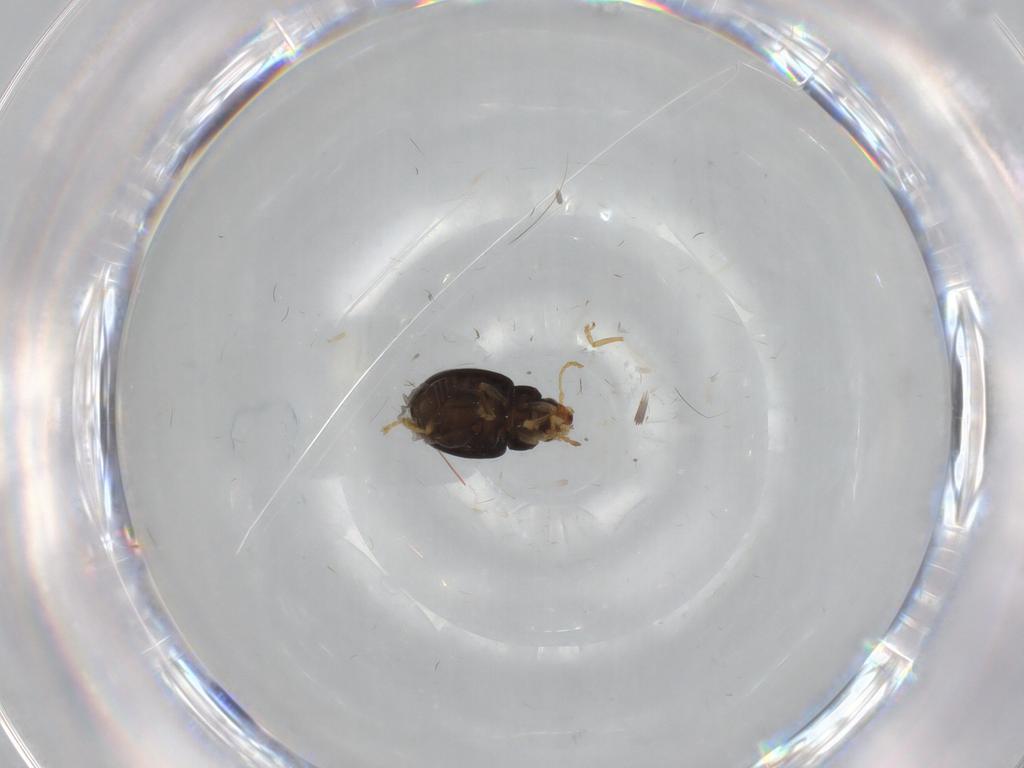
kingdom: Animalia
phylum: Arthropoda
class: Insecta
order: Coleoptera
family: Chrysomelidae
